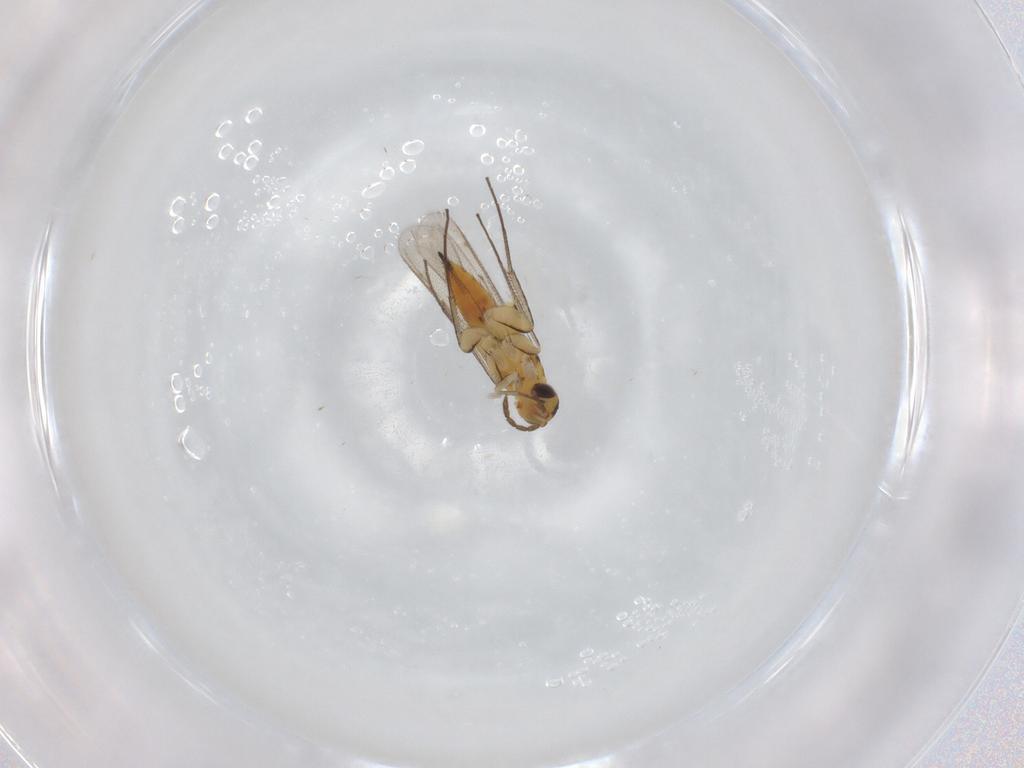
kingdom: Animalia
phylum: Arthropoda
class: Insecta
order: Hymenoptera
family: Eulophidae
